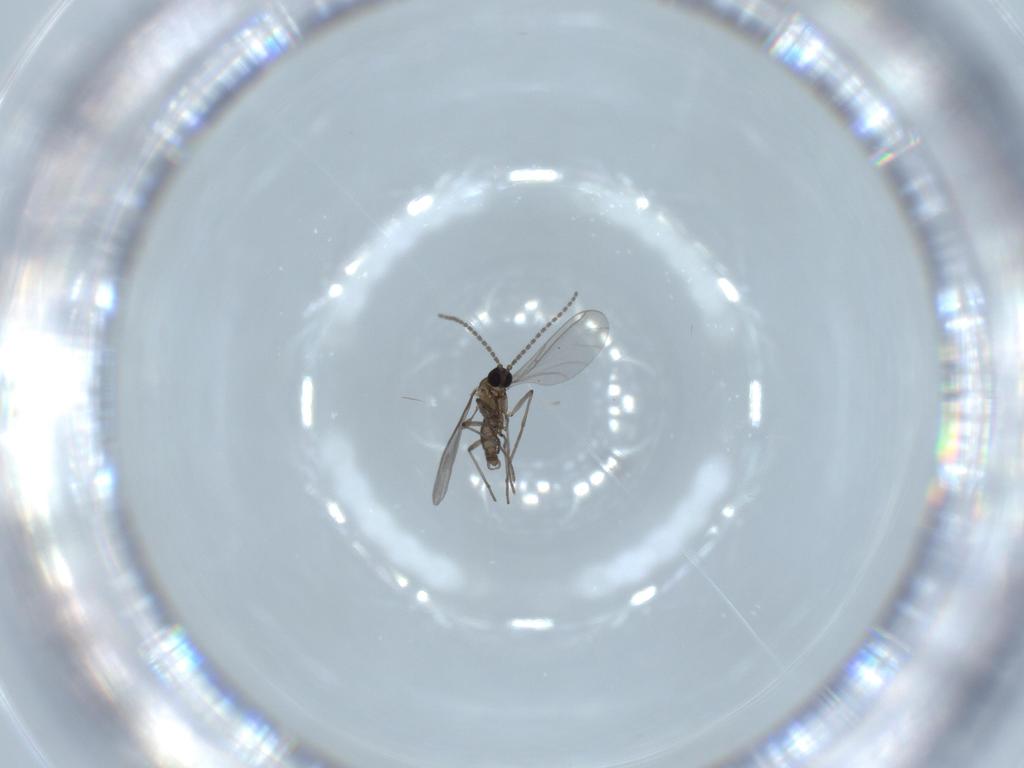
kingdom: Animalia
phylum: Arthropoda
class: Insecta
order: Diptera
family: Sciaridae
